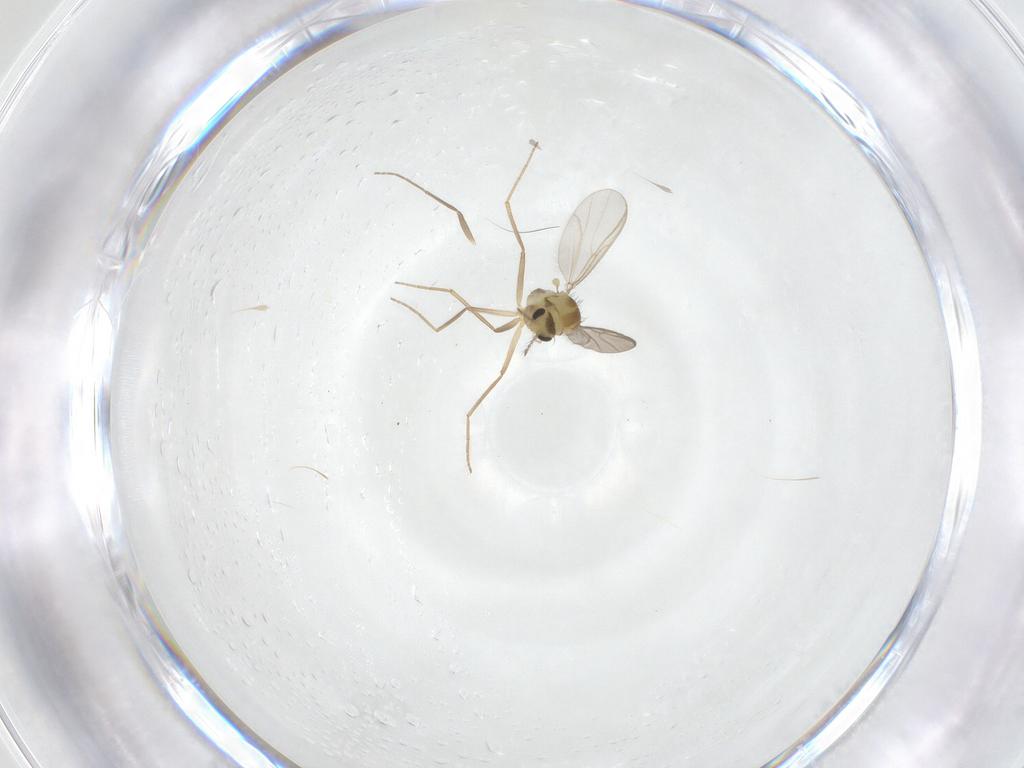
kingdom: Animalia
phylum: Arthropoda
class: Insecta
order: Diptera
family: Chironomidae
